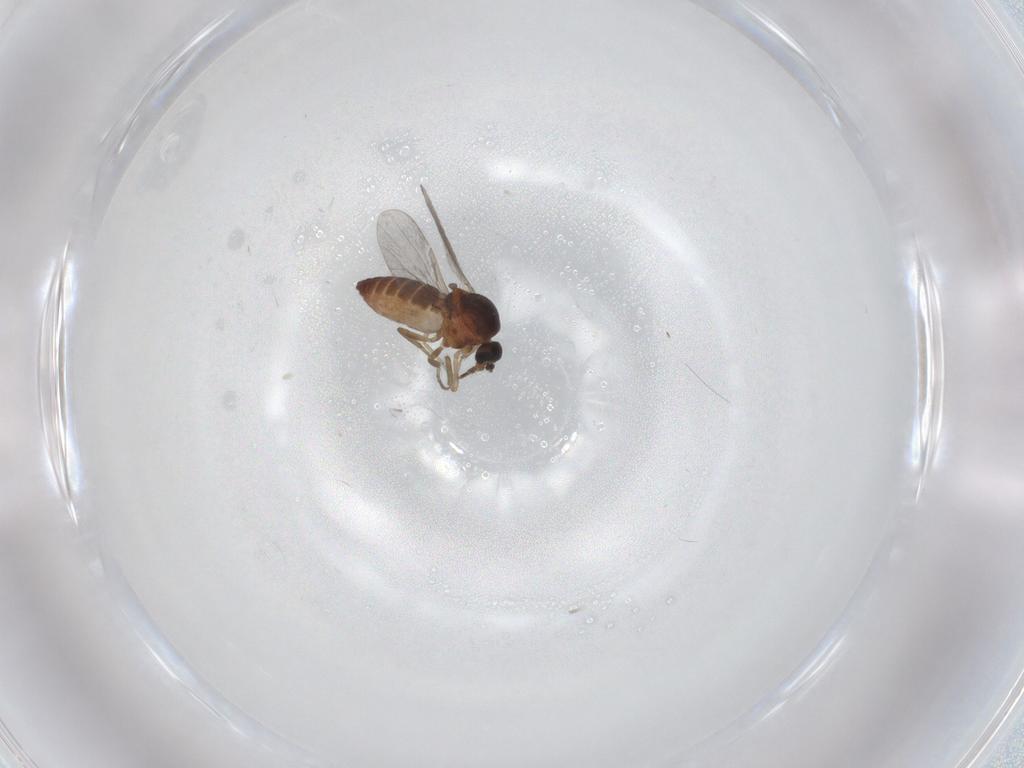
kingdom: Animalia
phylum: Arthropoda
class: Insecta
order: Diptera
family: Ceratopogonidae
